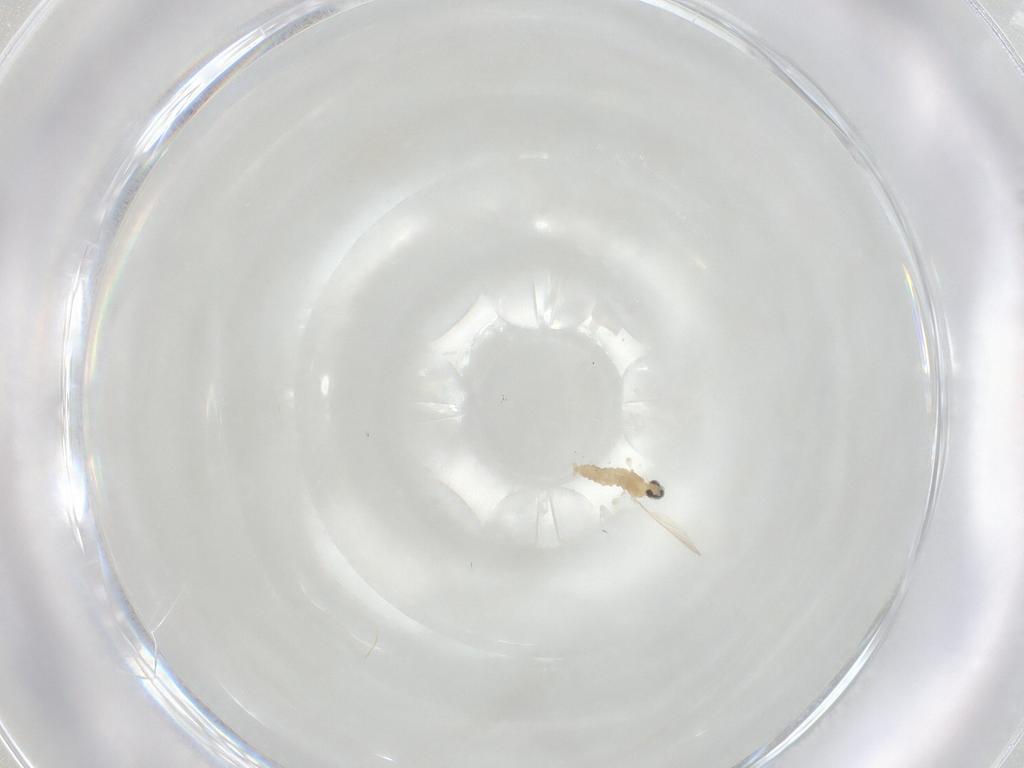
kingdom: Animalia
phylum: Arthropoda
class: Insecta
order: Diptera
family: Cecidomyiidae
